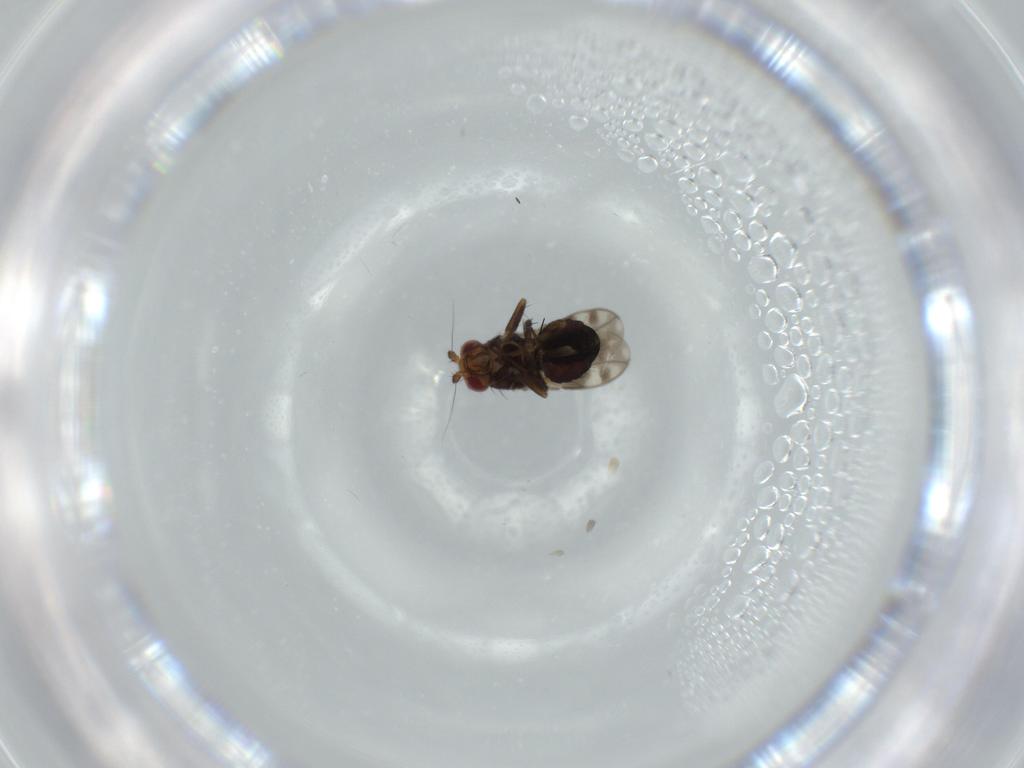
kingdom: Animalia
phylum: Arthropoda
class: Insecta
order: Diptera
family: Sphaeroceridae
